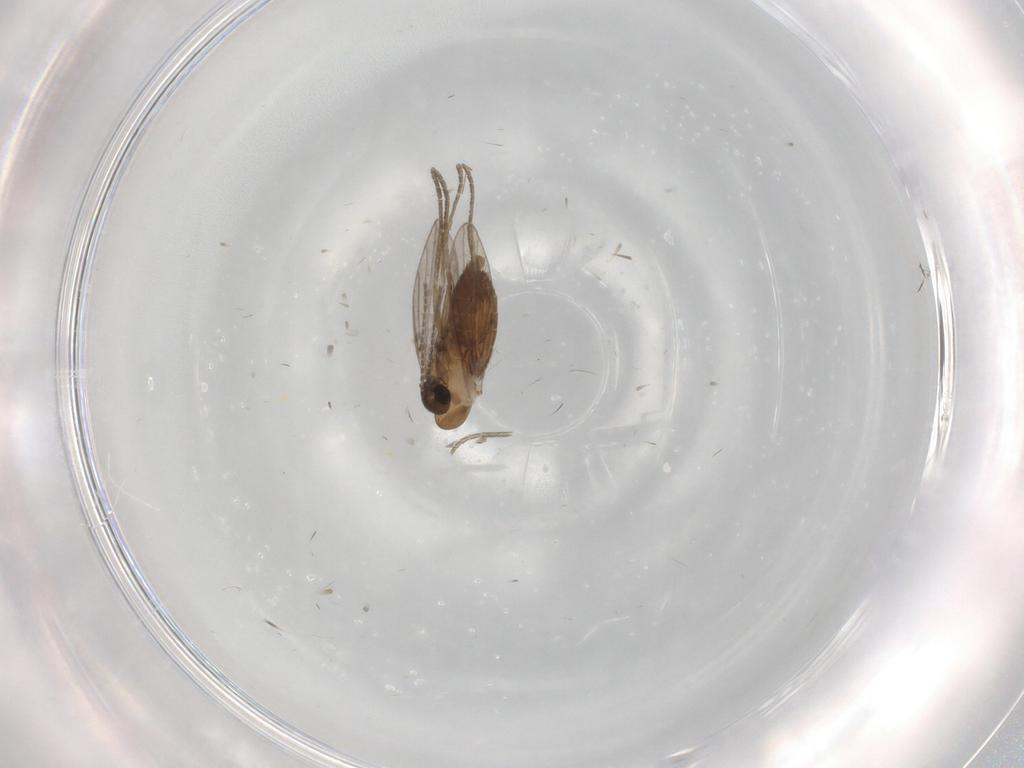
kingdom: Animalia
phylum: Arthropoda
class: Insecta
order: Diptera
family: Psychodidae
